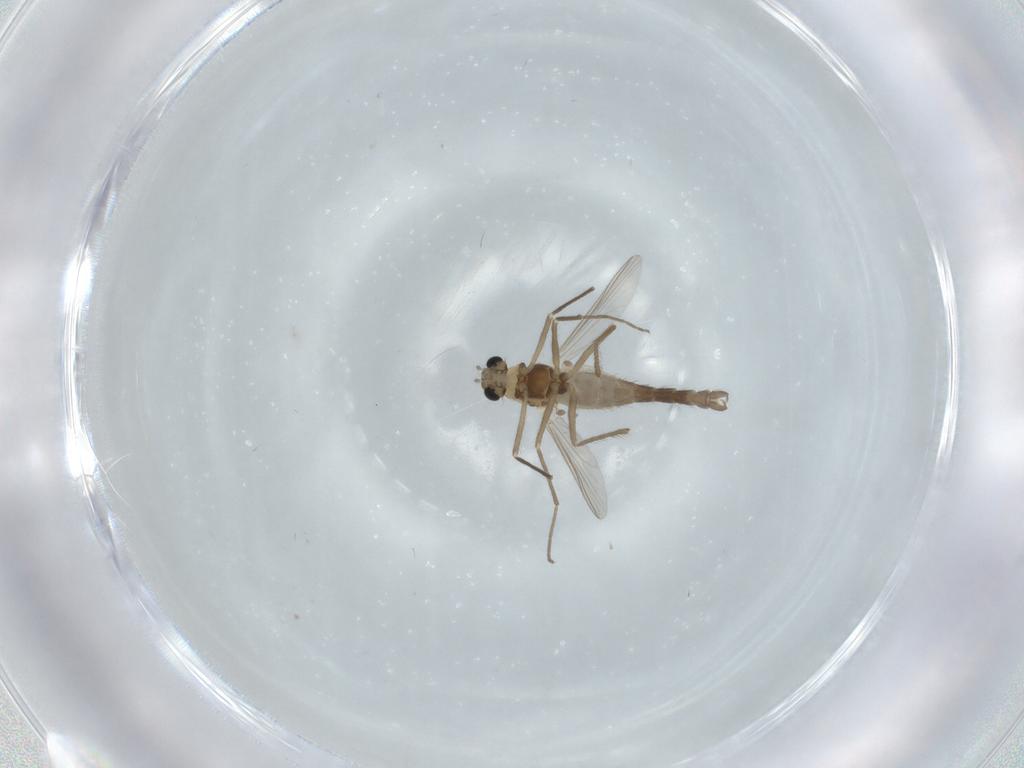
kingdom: Animalia
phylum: Arthropoda
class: Insecta
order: Diptera
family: Chironomidae
